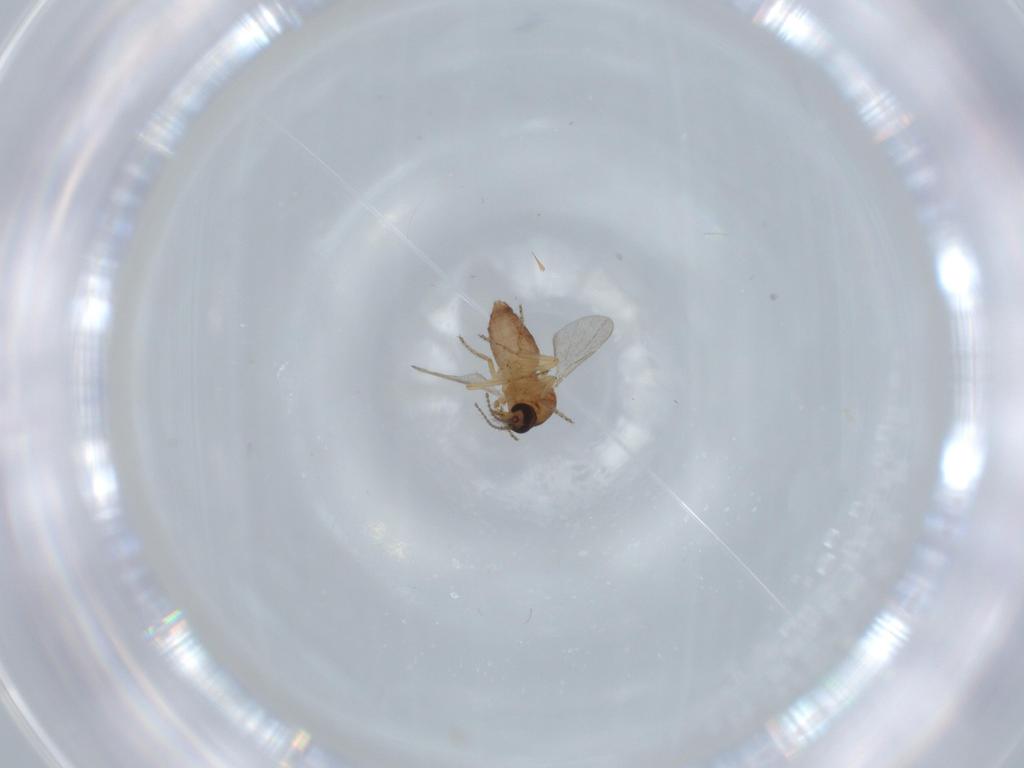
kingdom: Animalia
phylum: Arthropoda
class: Insecta
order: Diptera
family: Ceratopogonidae
